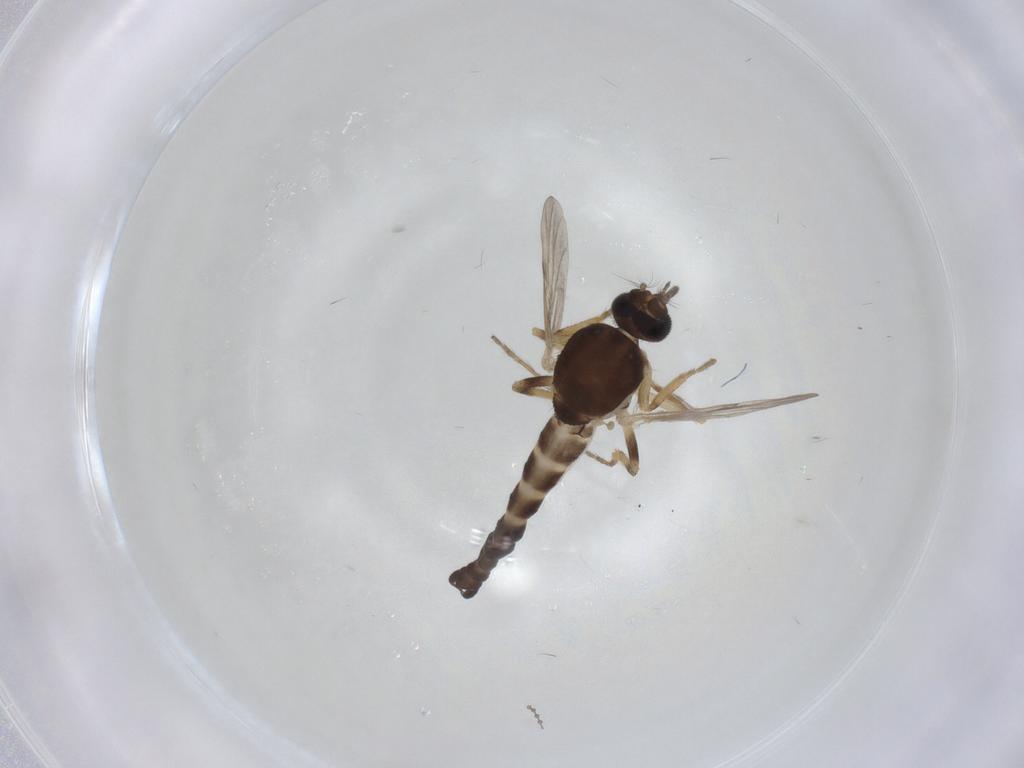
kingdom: Animalia
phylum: Arthropoda
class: Insecta
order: Diptera
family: Ceratopogonidae
